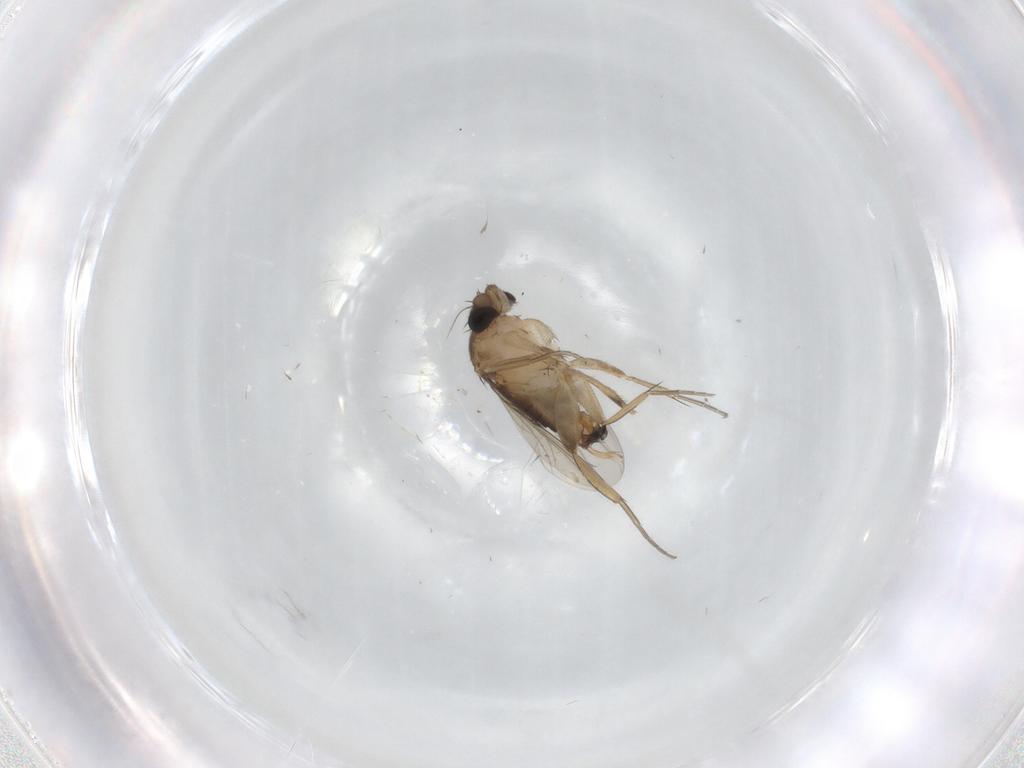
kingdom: Animalia
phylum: Arthropoda
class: Insecta
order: Diptera
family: Phoridae
